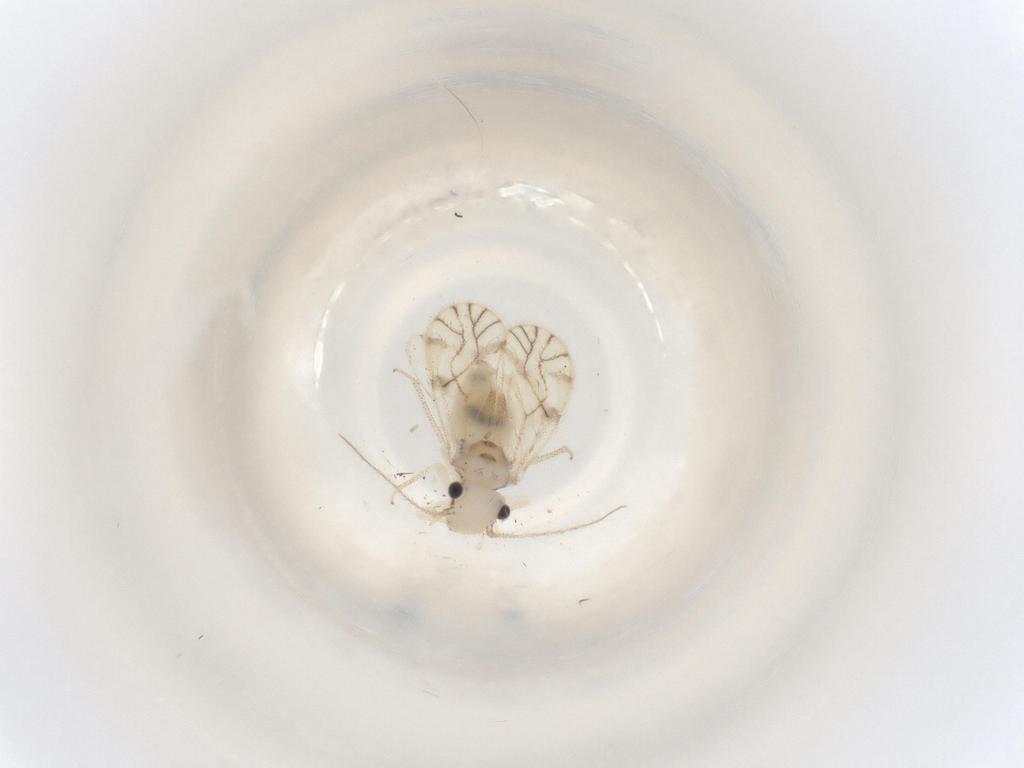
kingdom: Animalia
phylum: Arthropoda
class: Insecta
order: Psocodea
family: Pseudocaeciliidae
